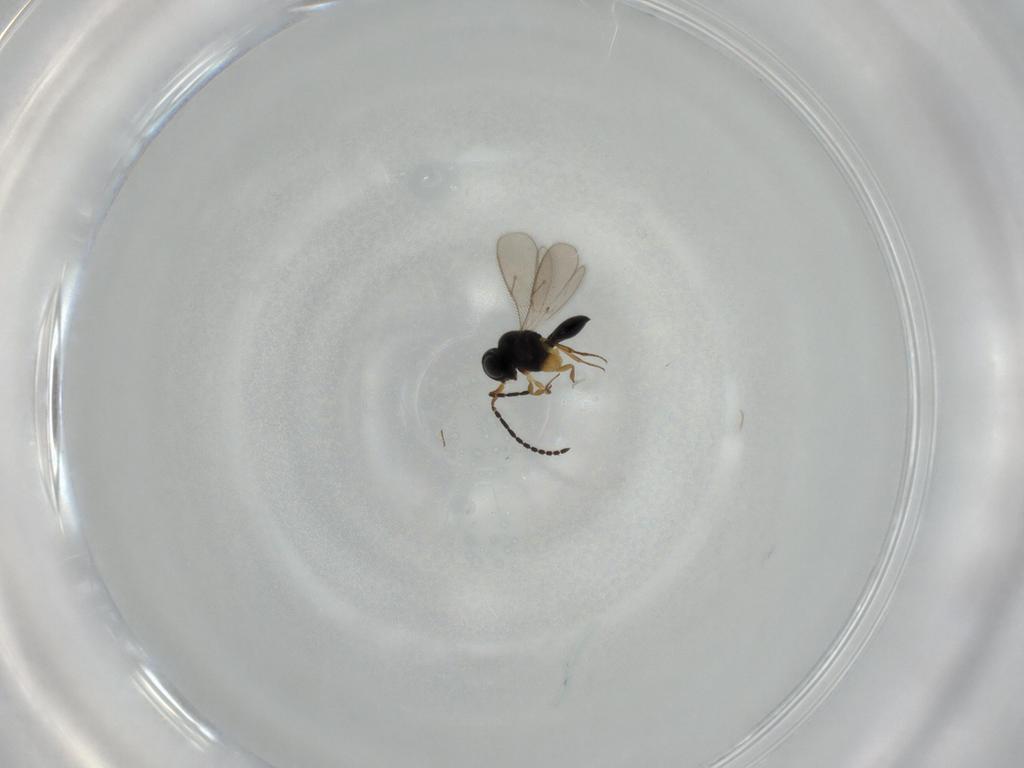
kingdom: Animalia
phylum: Arthropoda
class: Insecta
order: Hymenoptera
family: Scelionidae
